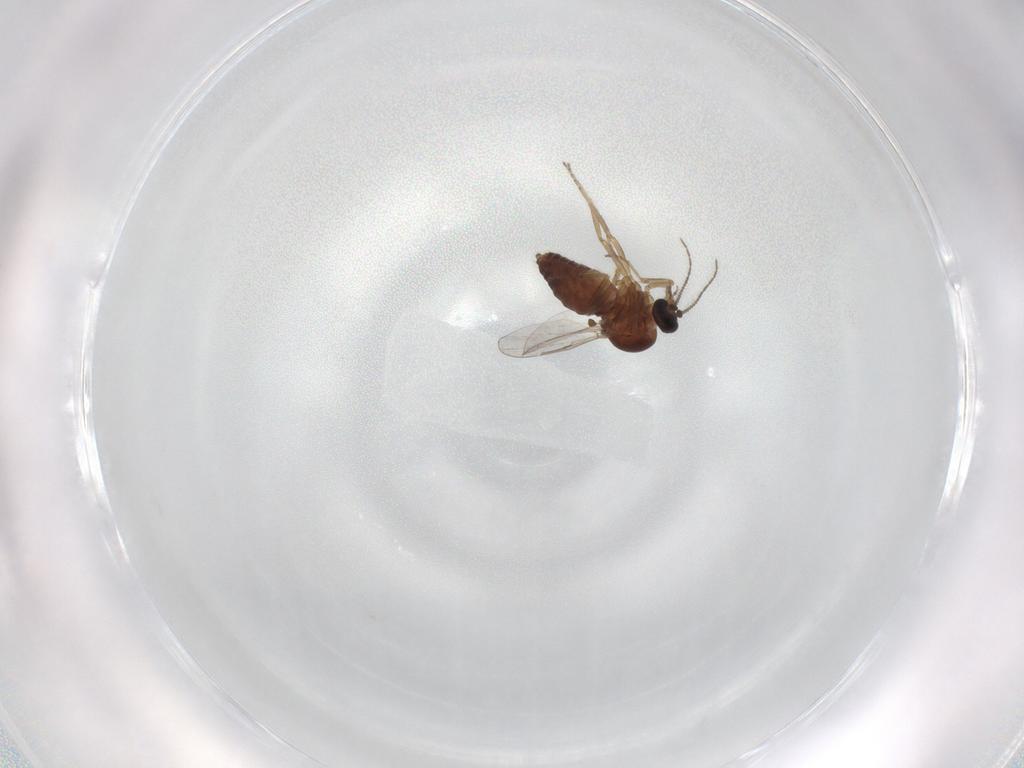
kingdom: Animalia
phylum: Arthropoda
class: Insecta
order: Diptera
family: Ceratopogonidae
